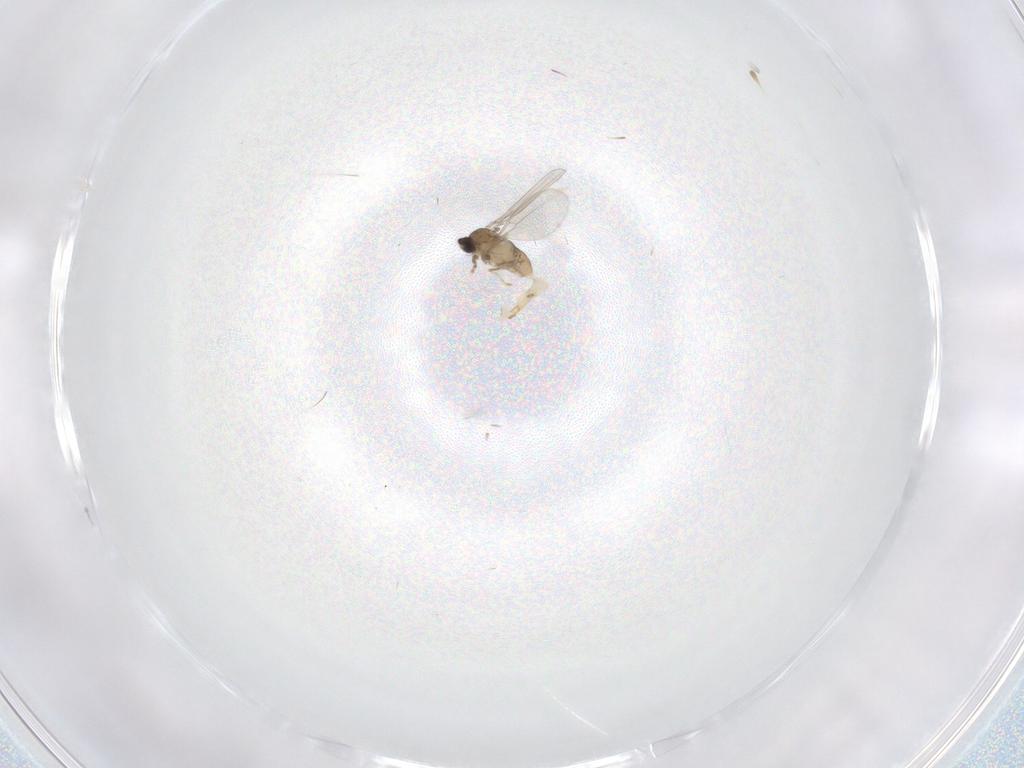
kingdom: Animalia
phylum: Arthropoda
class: Insecta
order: Diptera
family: Cecidomyiidae
